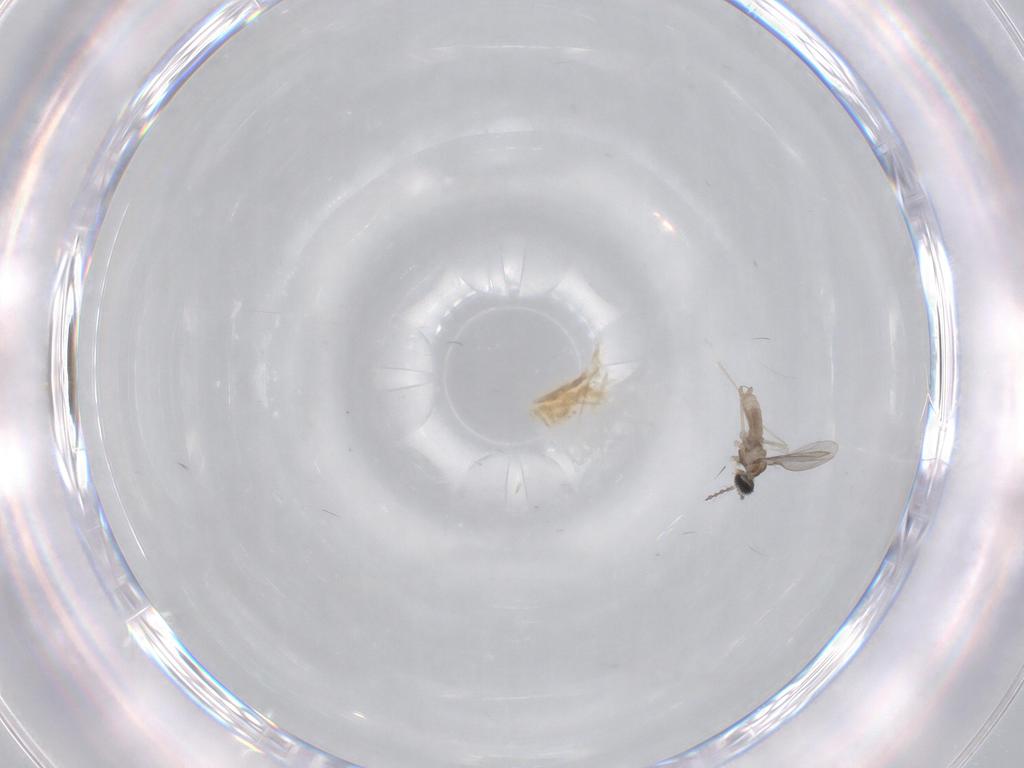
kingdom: Animalia
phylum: Arthropoda
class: Insecta
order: Diptera
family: Chironomidae
